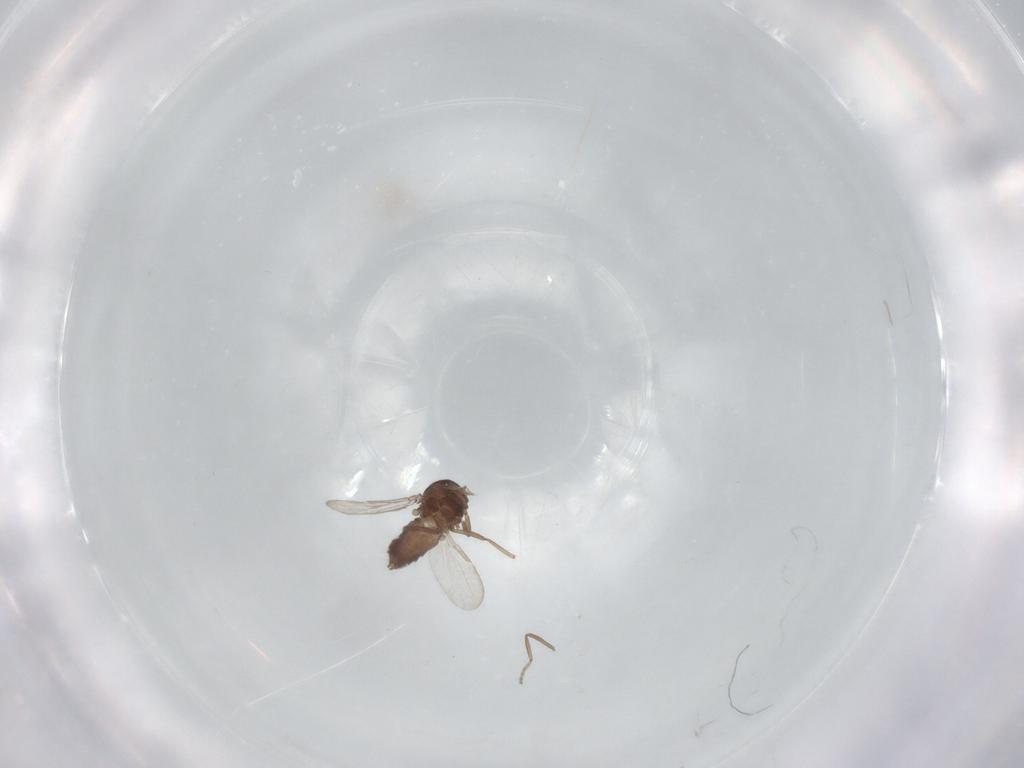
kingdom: Animalia
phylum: Arthropoda
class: Insecta
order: Diptera
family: Ceratopogonidae
